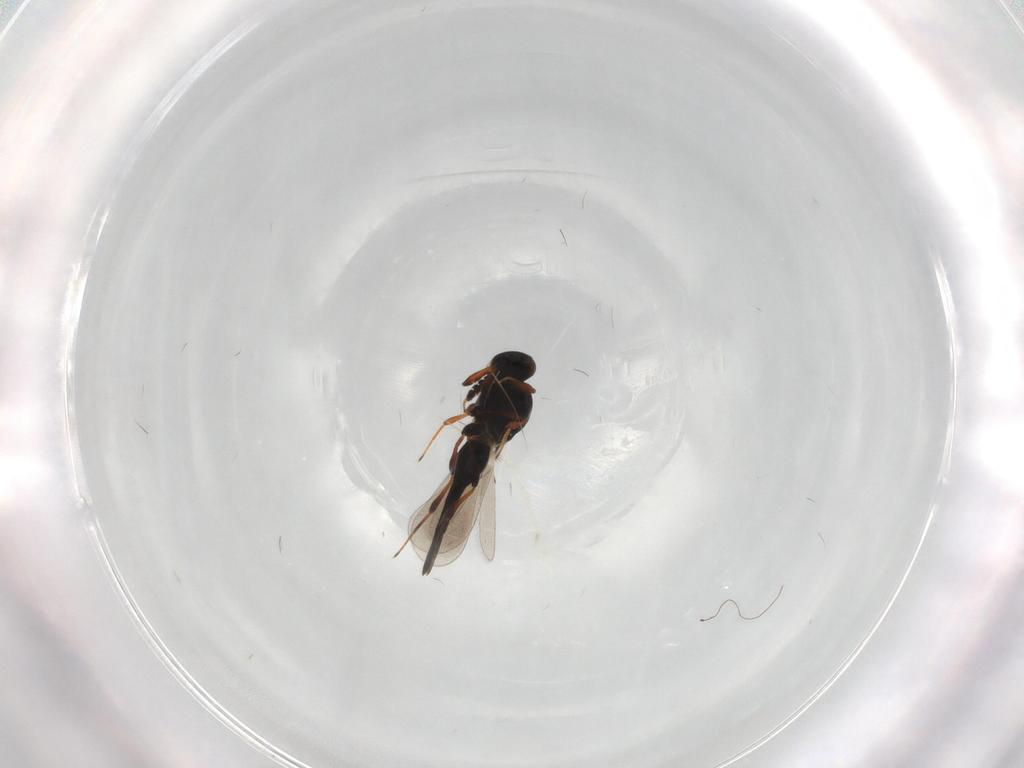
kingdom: Animalia
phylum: Arthropoda
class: Insecta
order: Hymenoptera
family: Platygastridae
